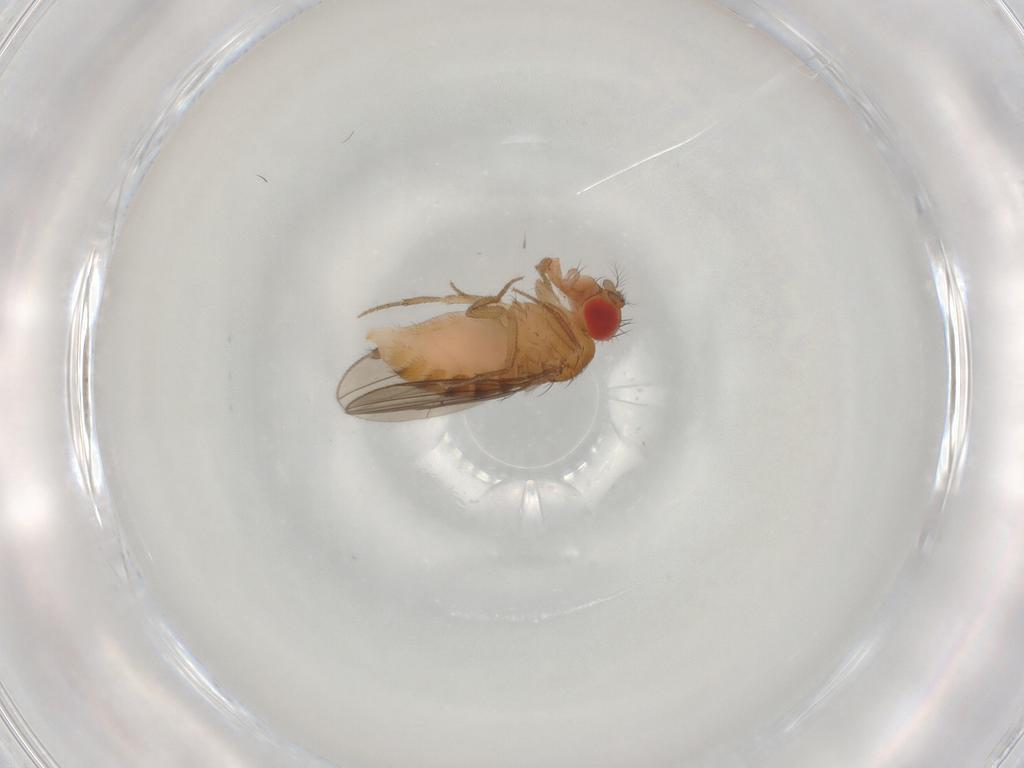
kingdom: Animalia
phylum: Arthropoda
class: Insecta
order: Diptera
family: Drosophilidae
